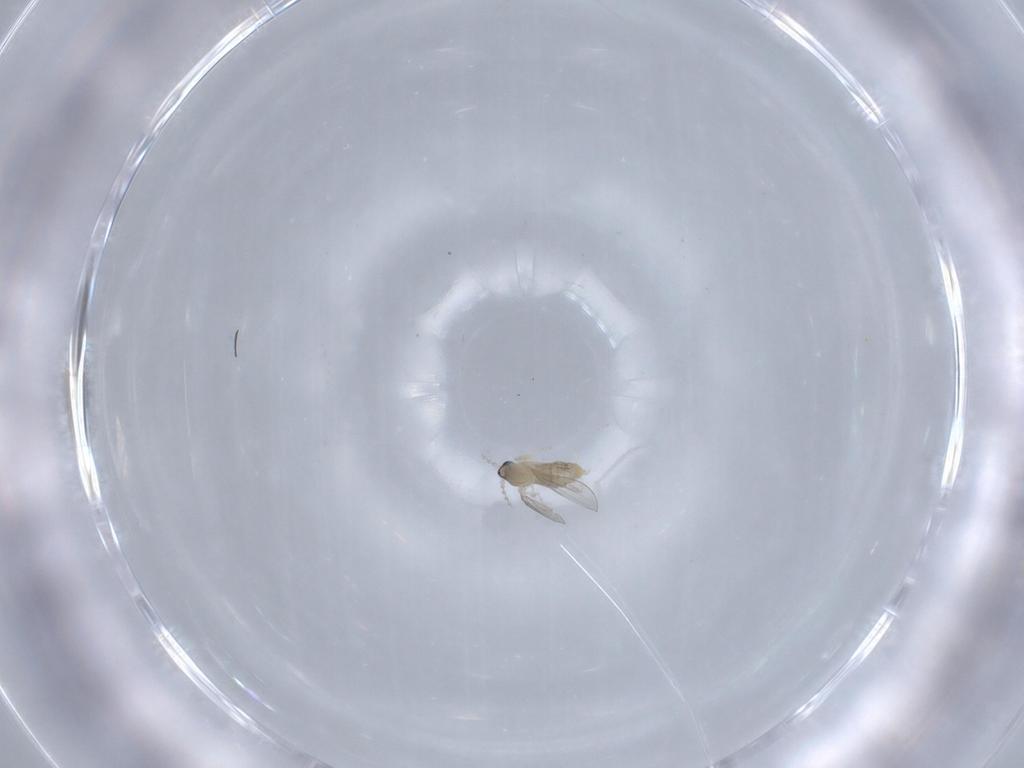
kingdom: Animalia
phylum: Arthropoda
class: Insecta
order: Diptera
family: Cecidomyiidae
